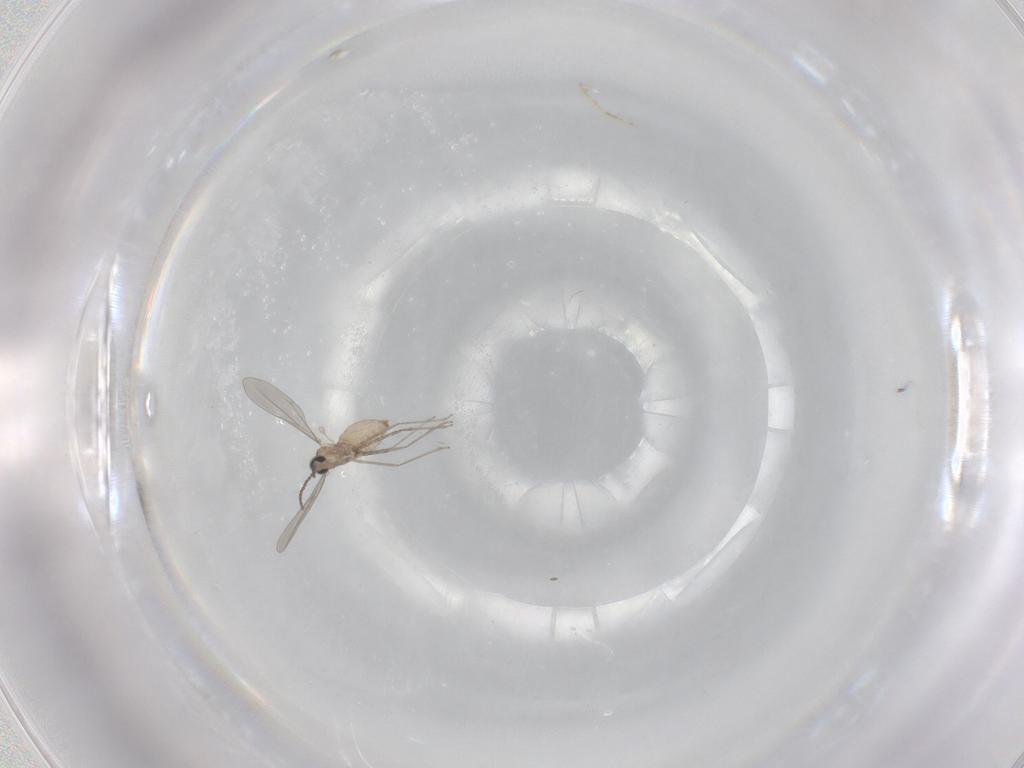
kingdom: Animalia
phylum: Arthropoda
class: Insecta
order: Diptera
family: Cecidomyiidae
